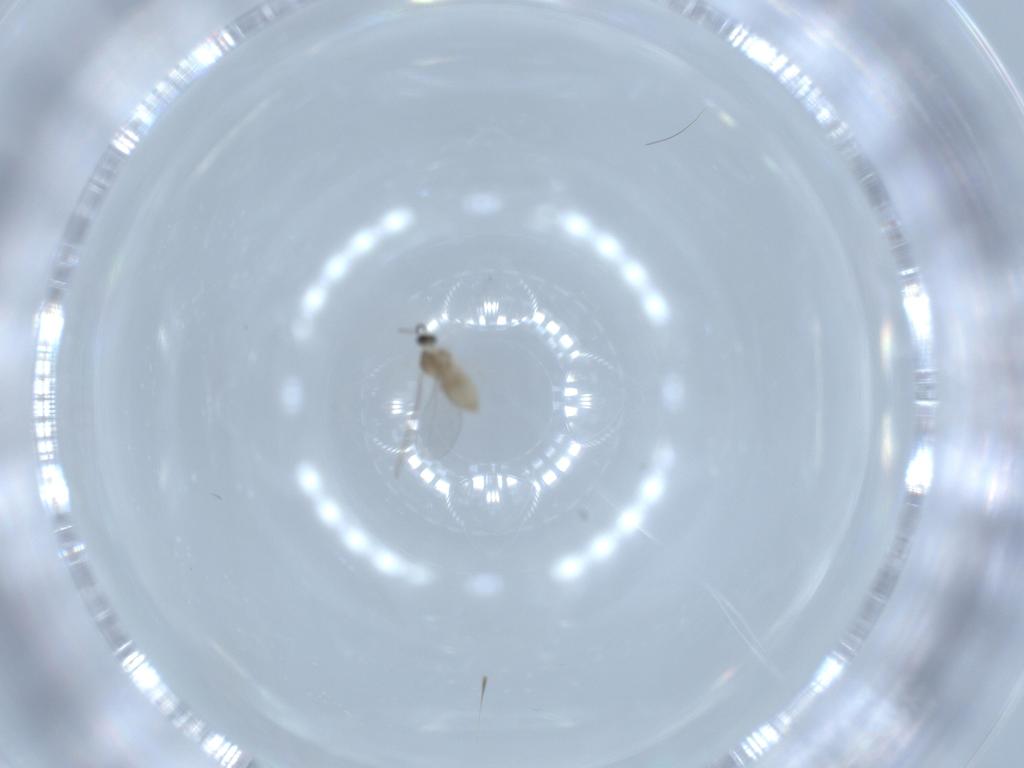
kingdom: Animalia
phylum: Arthropoda
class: Insecta
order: Diptera
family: Cecidomyiidae
